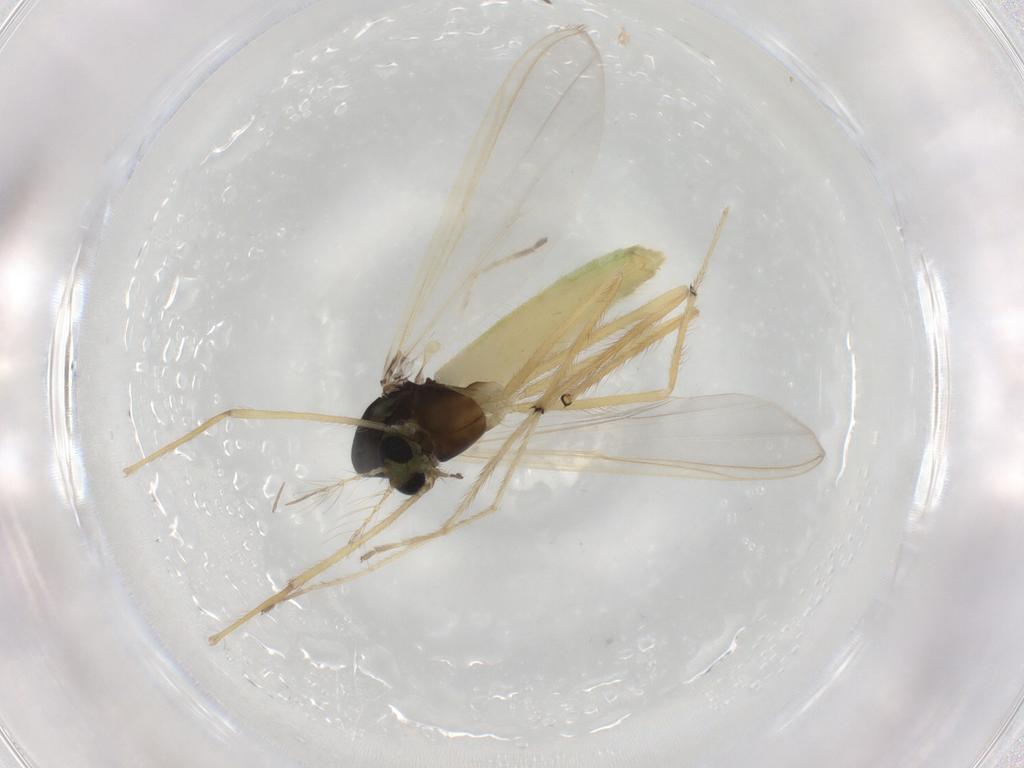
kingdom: Animalia
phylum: Arthropoda
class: Insecta
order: Diptera
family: Chironomidae
